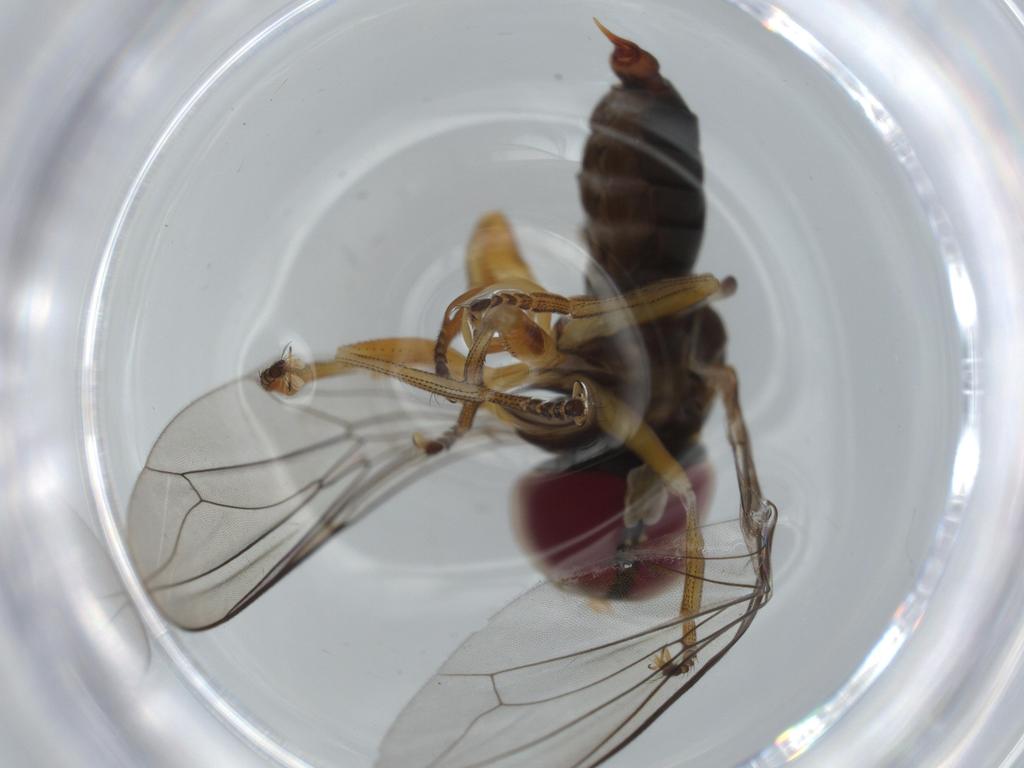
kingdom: Animalia
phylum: Arthropoda
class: Insecta
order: Diptera
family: Pipunculidae
